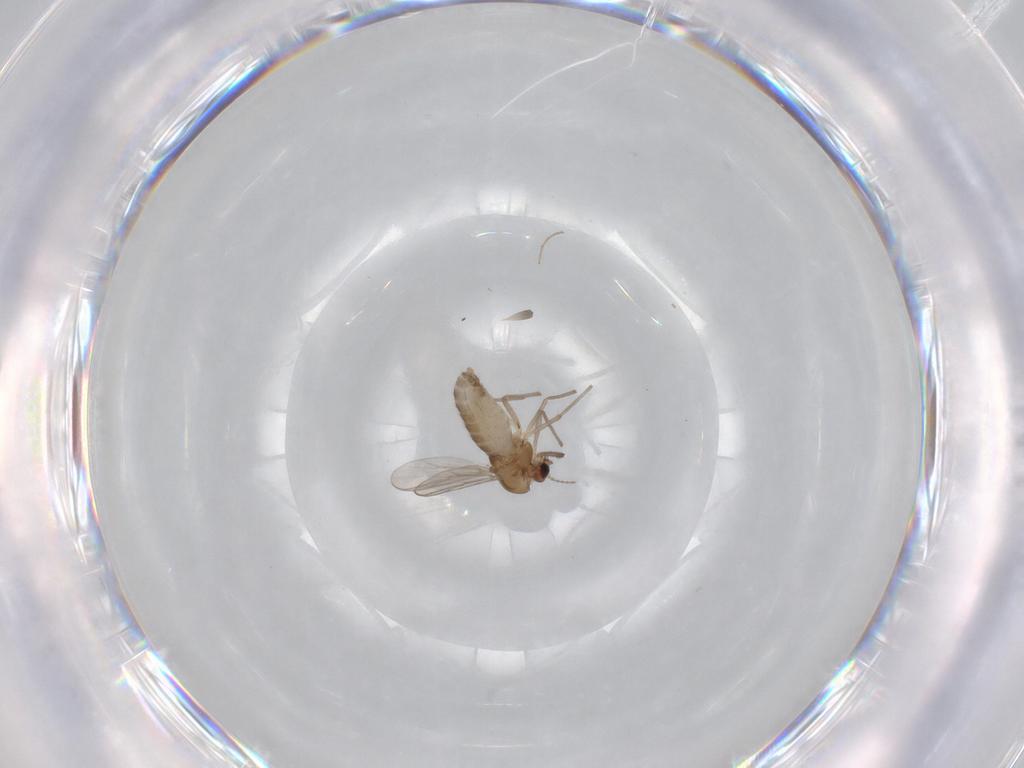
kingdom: Animalia
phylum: Arthropoda
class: Insecta
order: Diptera
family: Chironomidae
